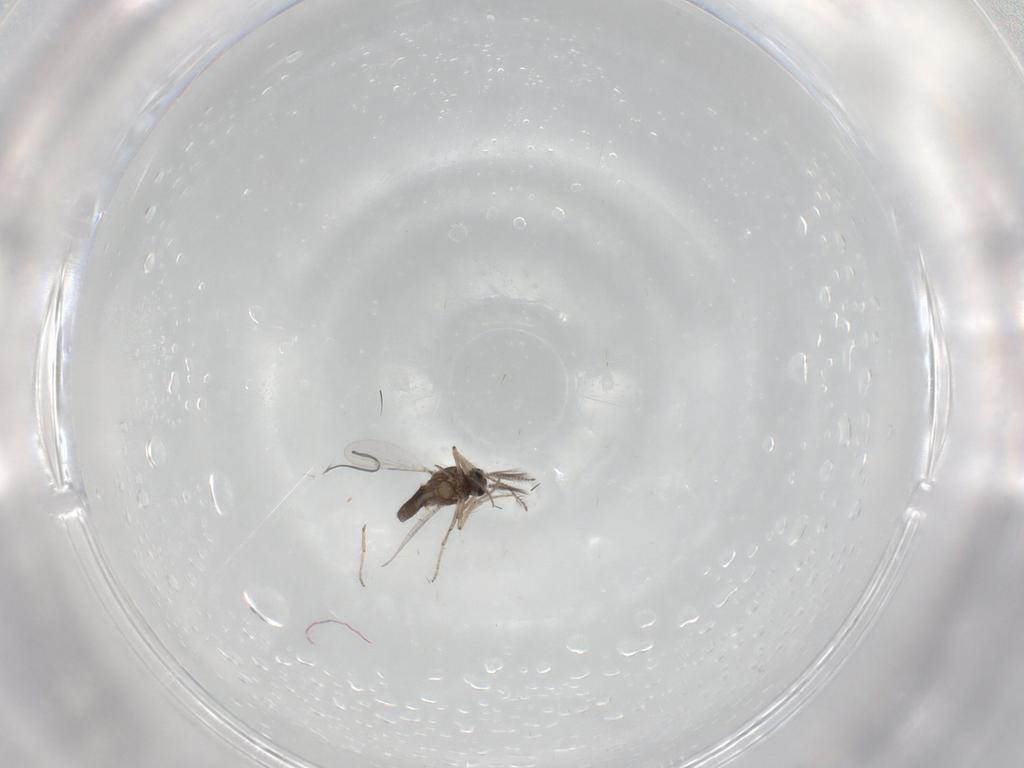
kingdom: Animalia
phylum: Arthropoda
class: Insecta
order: Diptera
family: Ceratopogonidae
